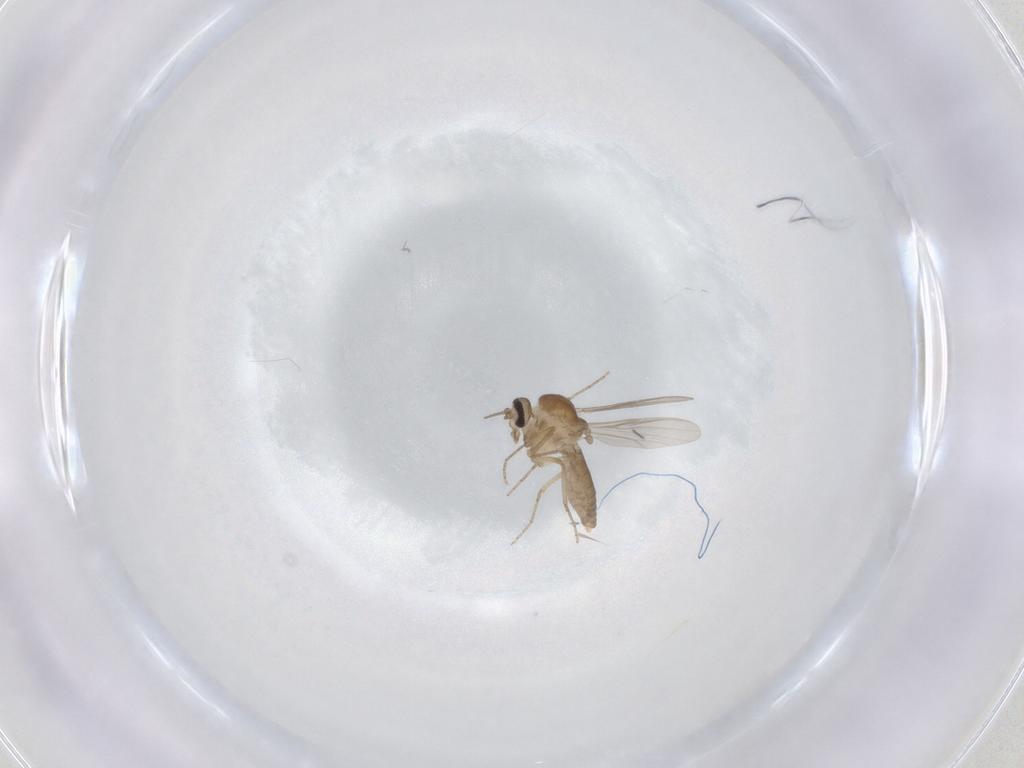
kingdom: Animalia
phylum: Arthropoda
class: Insecta
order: Diptera
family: Ceratopogonidae
